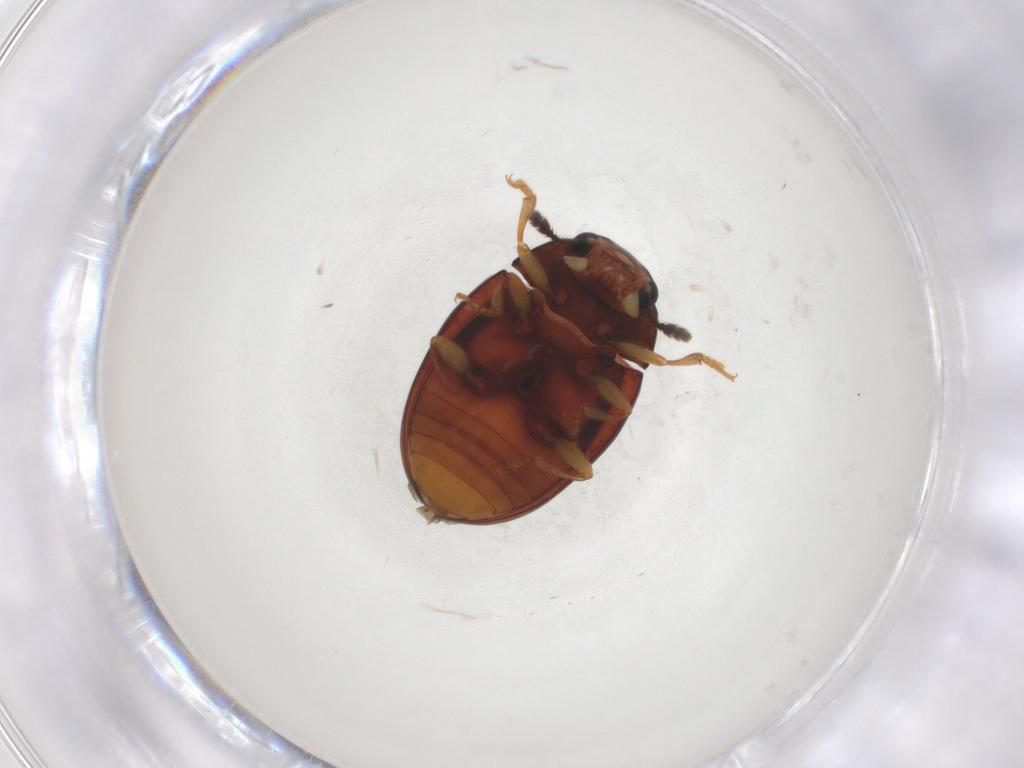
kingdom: Animalia
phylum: Arthropoda
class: Insecta
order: Coleoptera
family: Erotylidae
